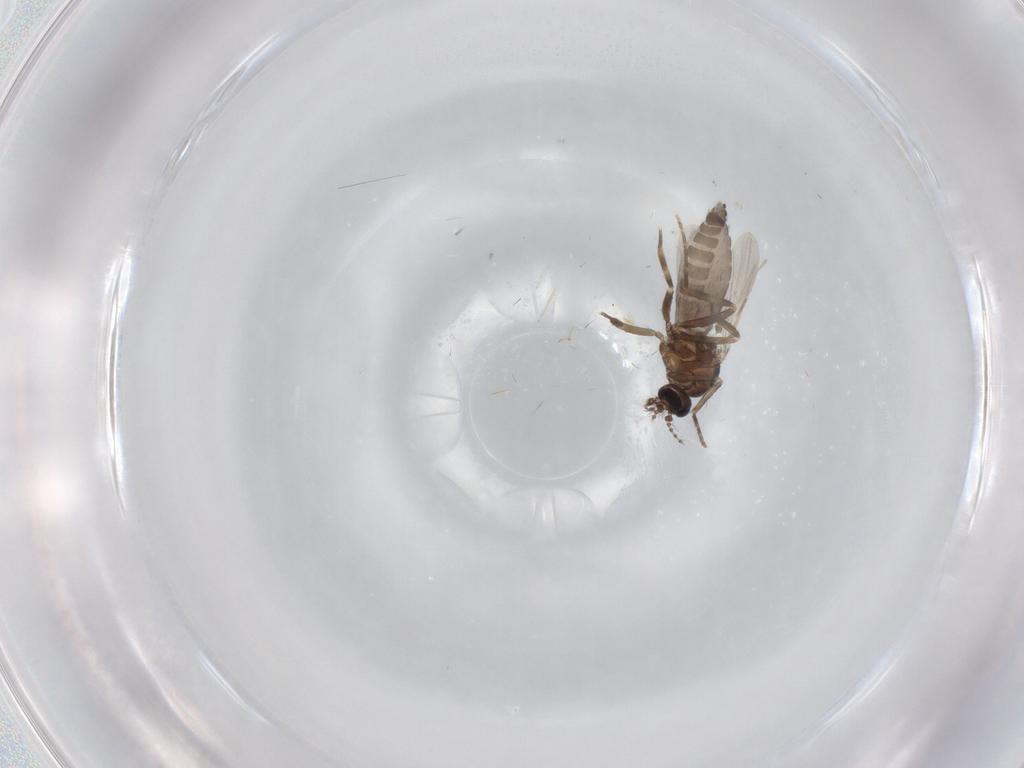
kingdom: Animalia
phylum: Arthropoda
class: Insecta
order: Diptera
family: Ceratopogonidae
